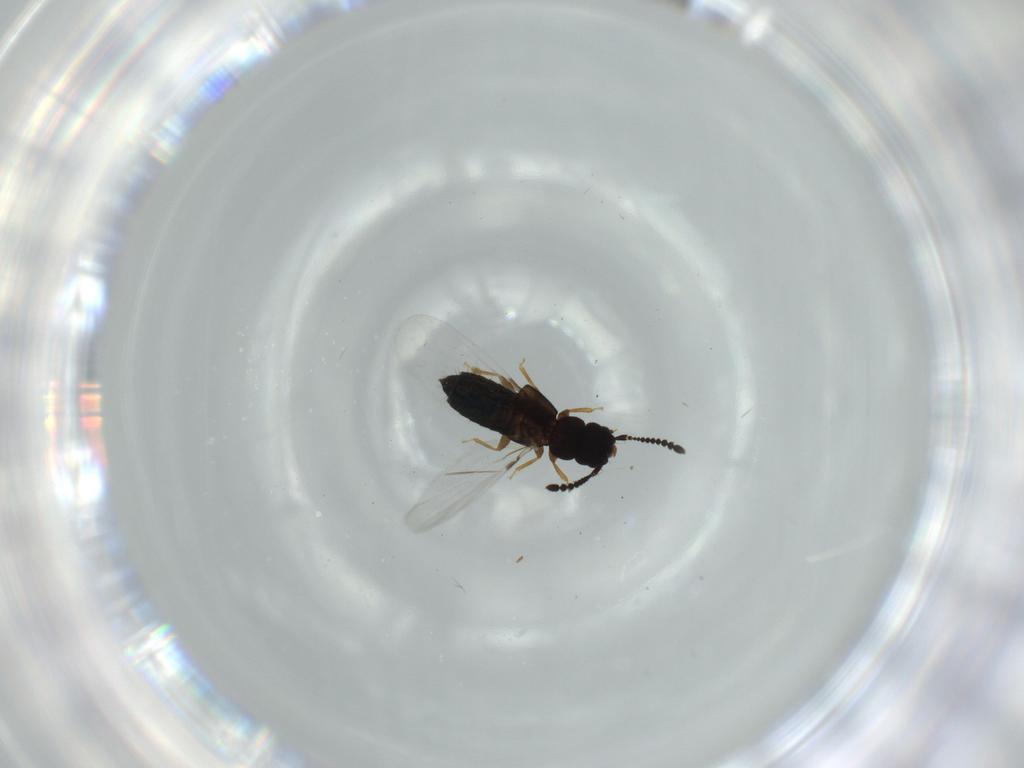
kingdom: Animalia
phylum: Arthropoda
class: Insecta
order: Coleoptera
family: Staphylinidae
